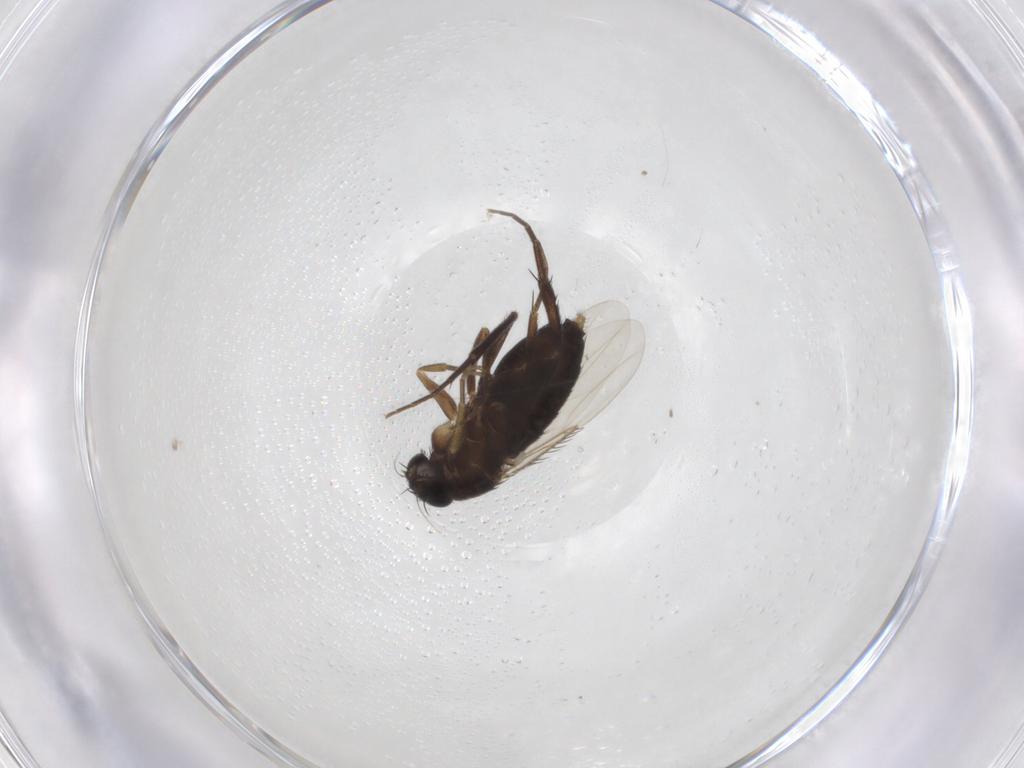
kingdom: Animalia
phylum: Arthropoda
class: Insecta
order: Diptera
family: Phoridae
